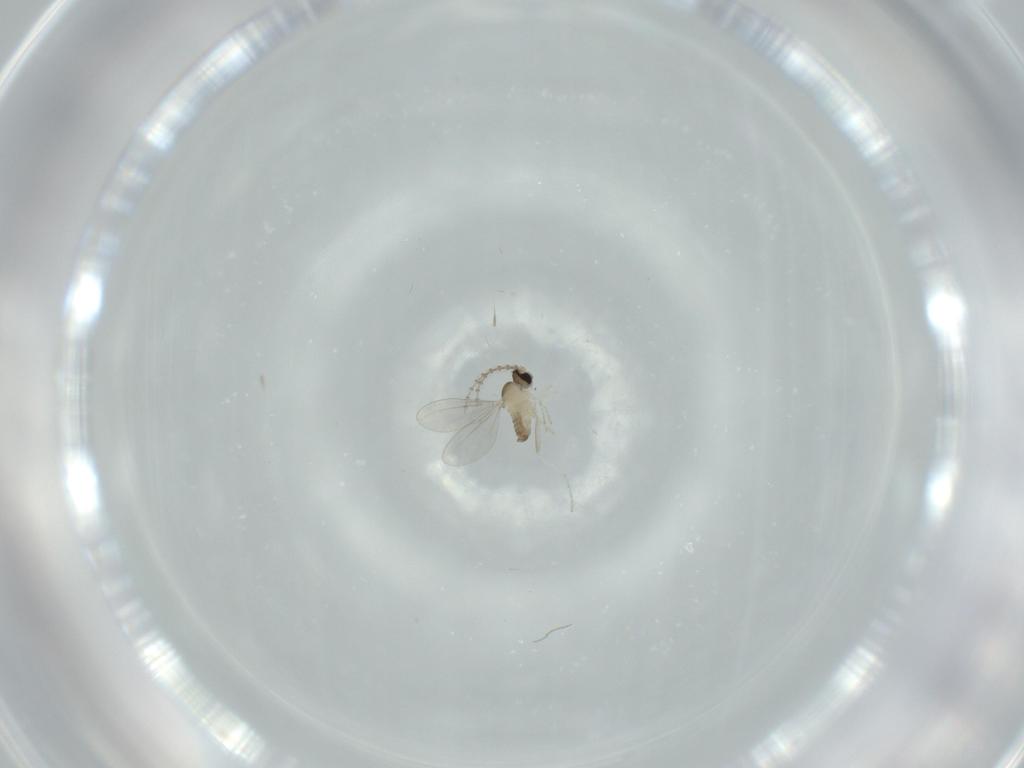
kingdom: Animalia
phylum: Arthropoda
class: Insecta
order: Diptera
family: Cecidomyiidae
